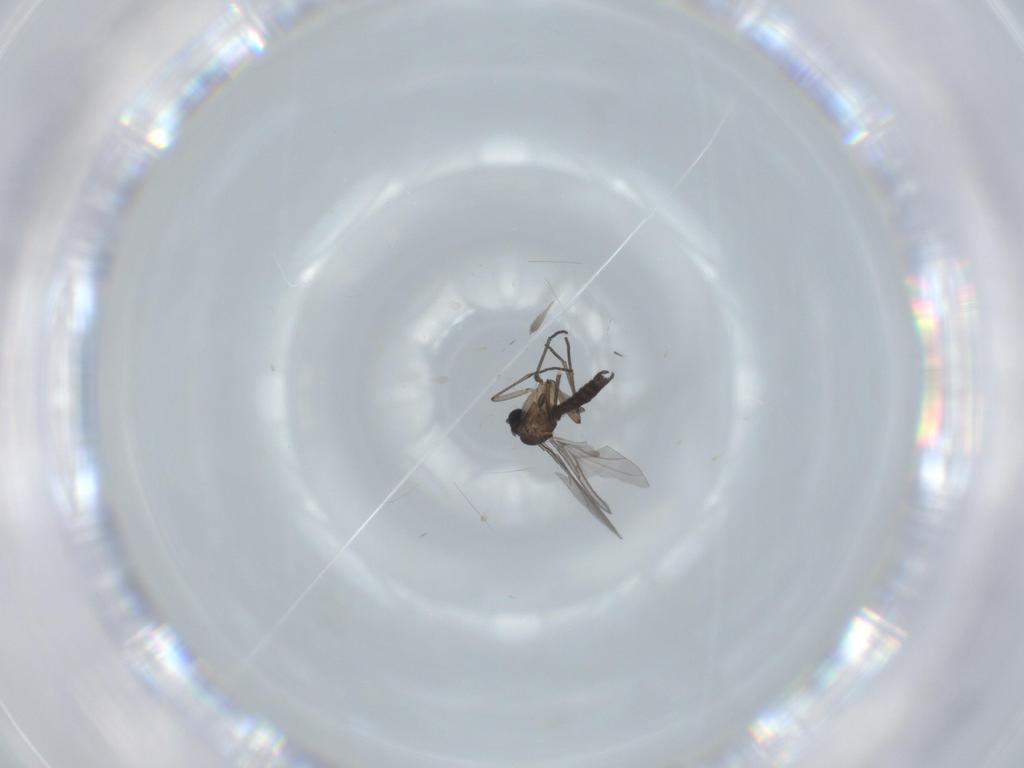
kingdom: Animalia
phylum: Arthropoda
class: Insecta
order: Diptera
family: Sciaridae
